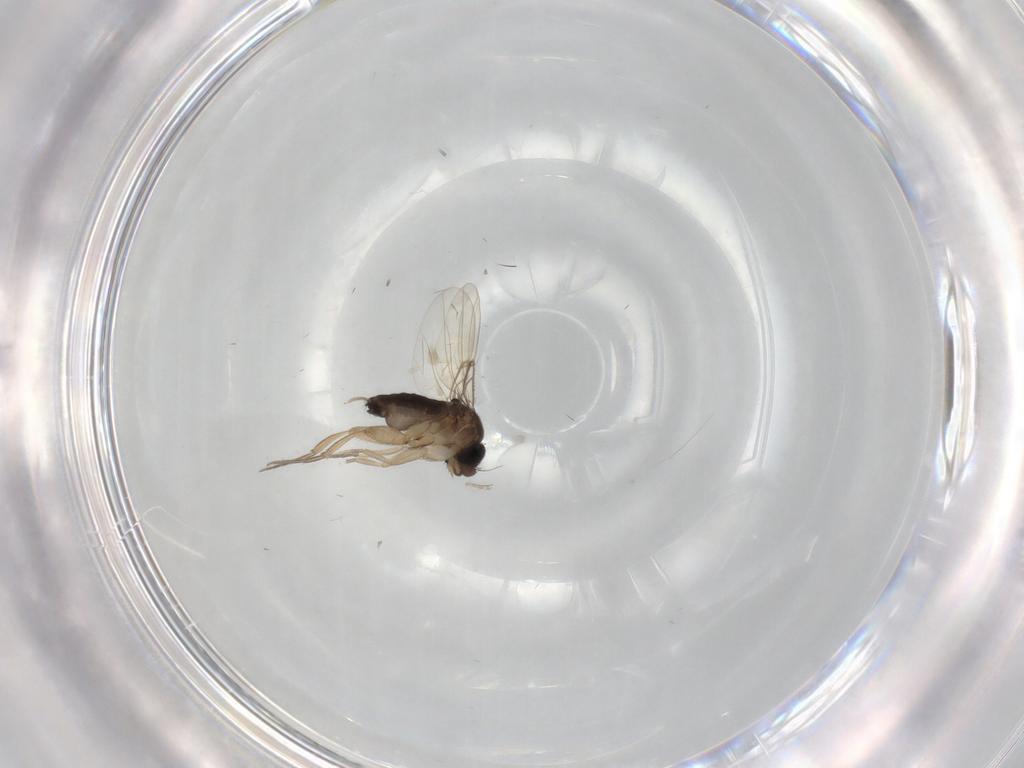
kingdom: Animalia
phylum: Arthropoda
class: Insecta
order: Diptera
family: Phoridae
